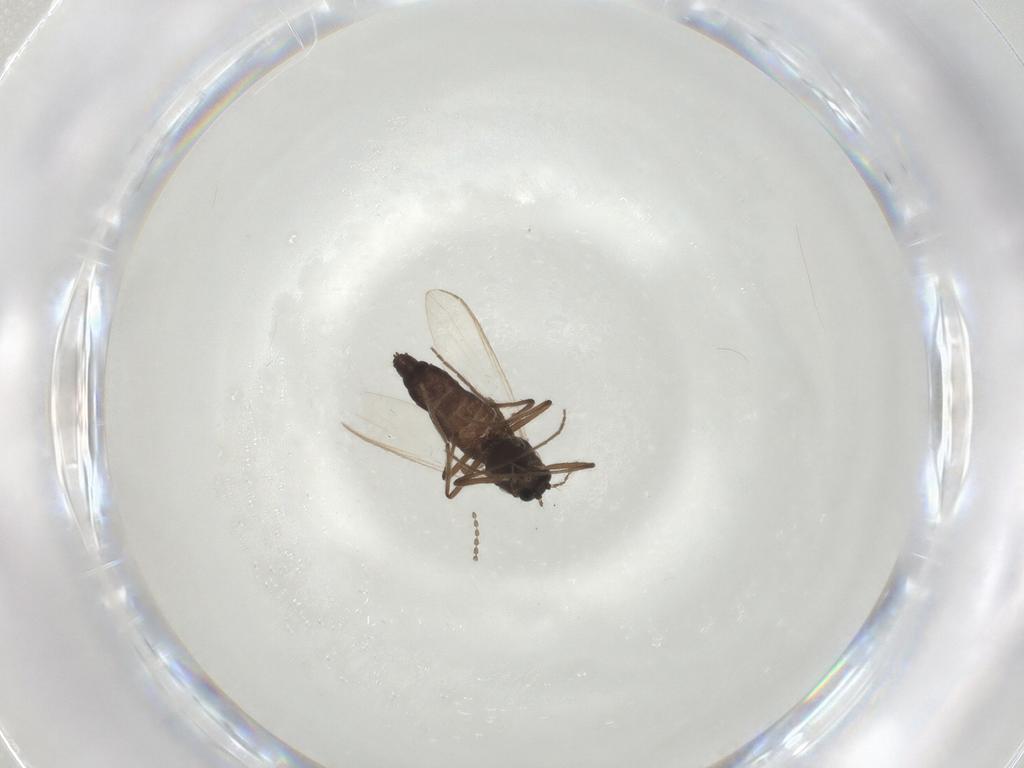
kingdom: Animalia
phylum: Arthropoda
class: Insecta
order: Diptera
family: Chironomidae
